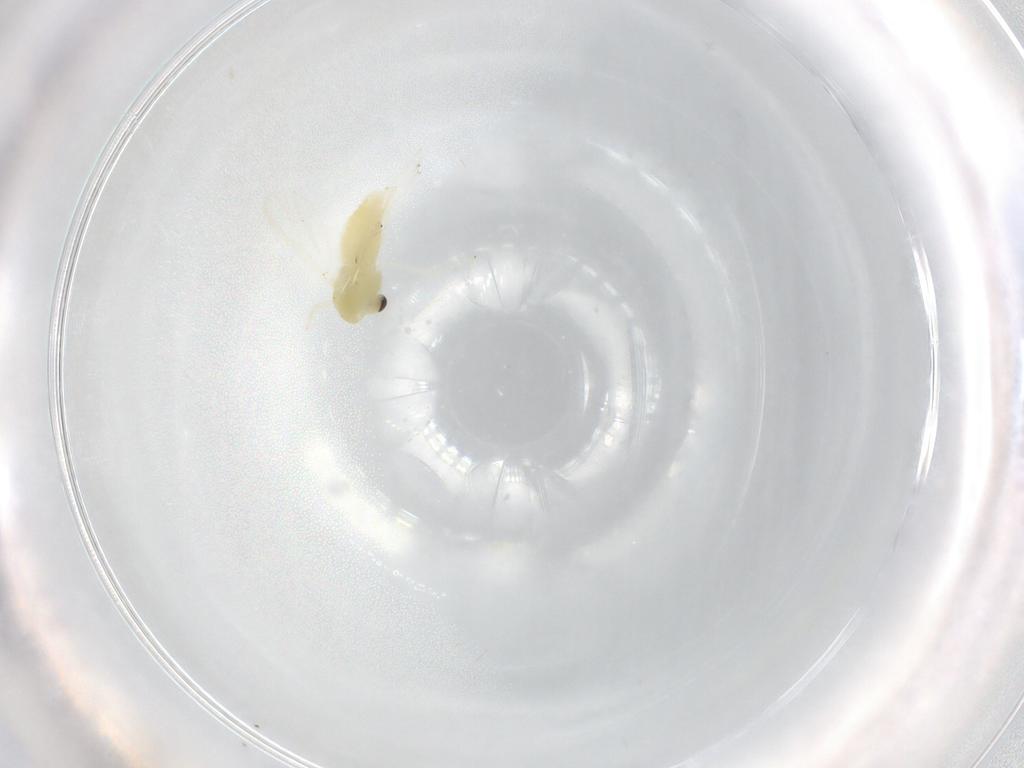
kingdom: Animalia
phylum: Arthropoda
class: Insecta
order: Diptera
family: Chironomidae
